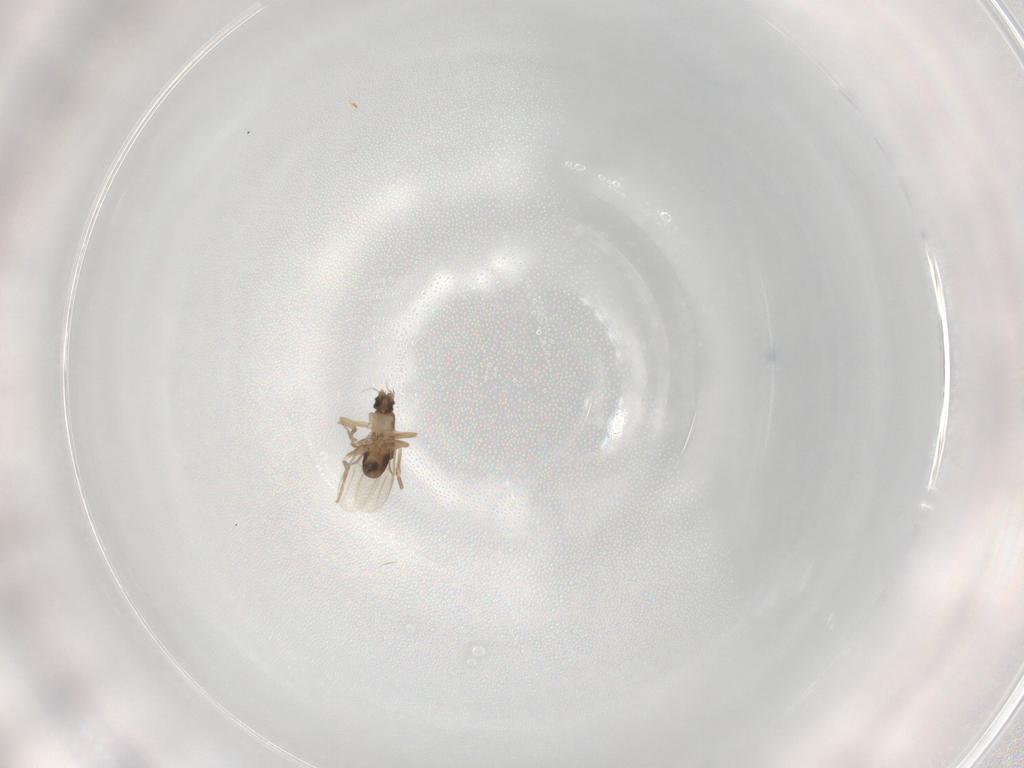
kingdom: Animalia
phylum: Arthropoda
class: Insecta
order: Diptera
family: Phoridae
